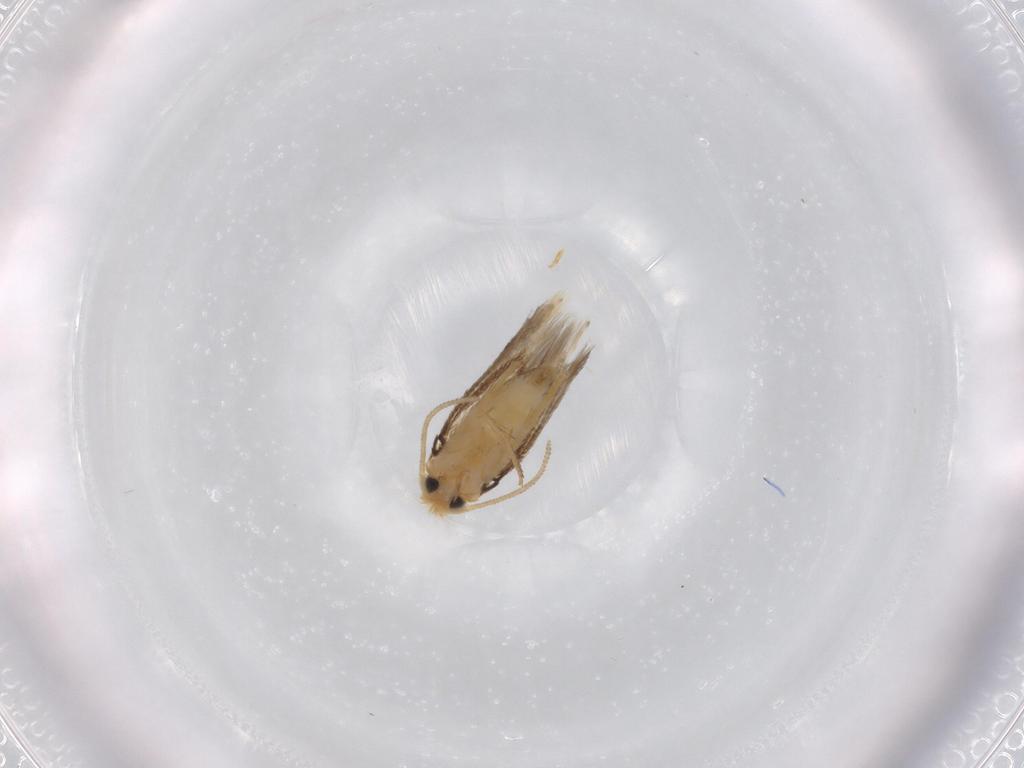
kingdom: Animalia
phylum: Arthropoda
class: Insecta
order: Lepidoptera
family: Nepticulidae
